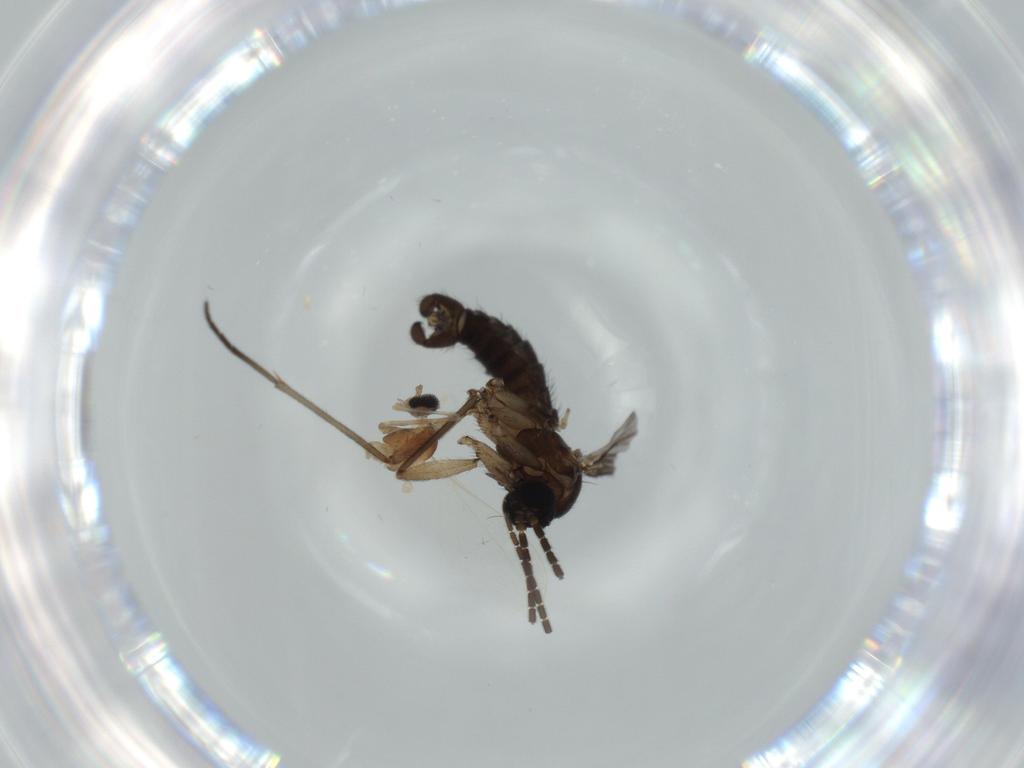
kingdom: Animalia
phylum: Arthropoda
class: Insecta
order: Diptera
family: Sciaridae
